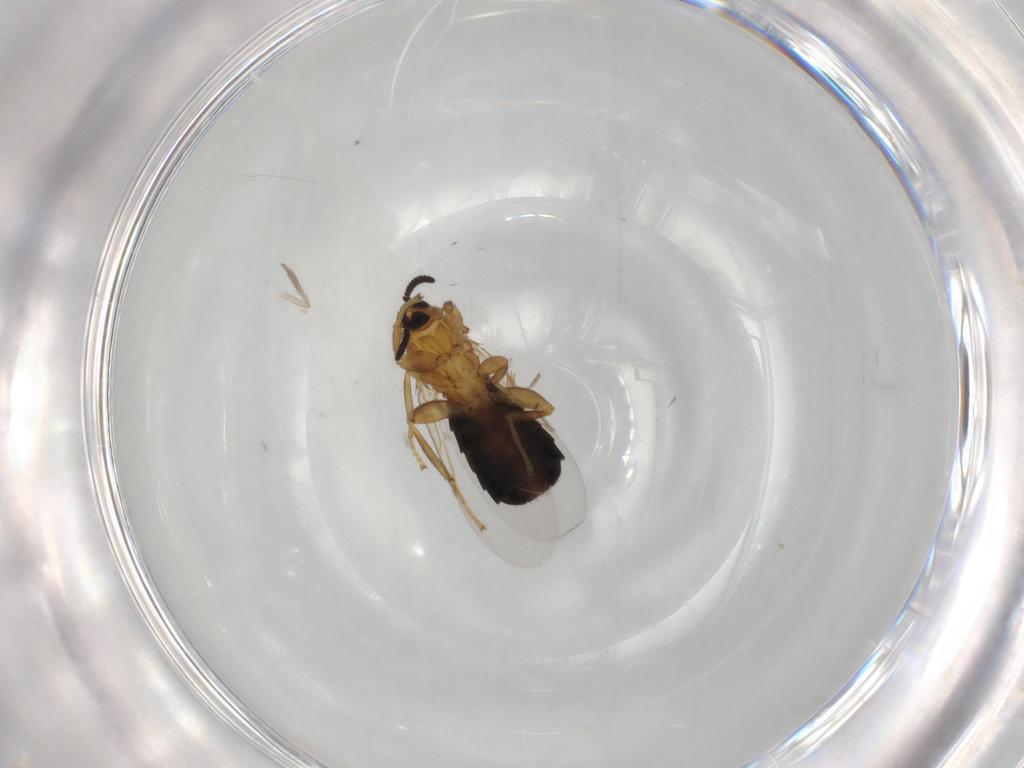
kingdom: Animalia
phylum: Arthropoda
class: Insecta
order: Diptera
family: Scatopsidae
